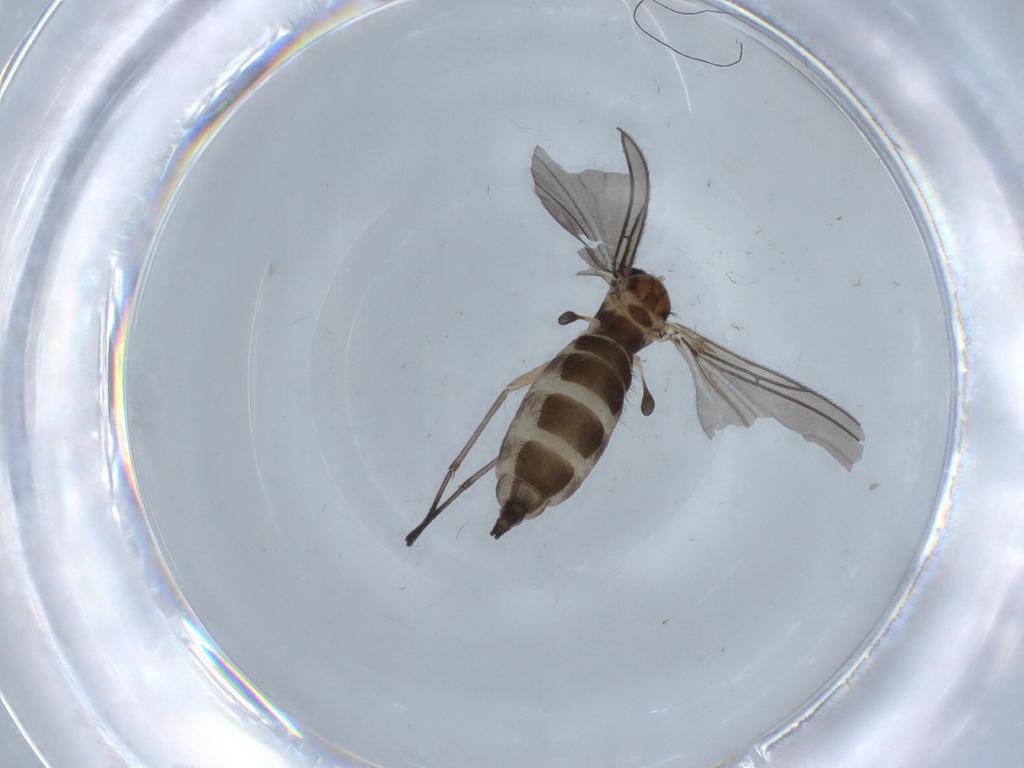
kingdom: Animalia
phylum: Arthropoda
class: Insecta
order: Diptera
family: Sciaridae
